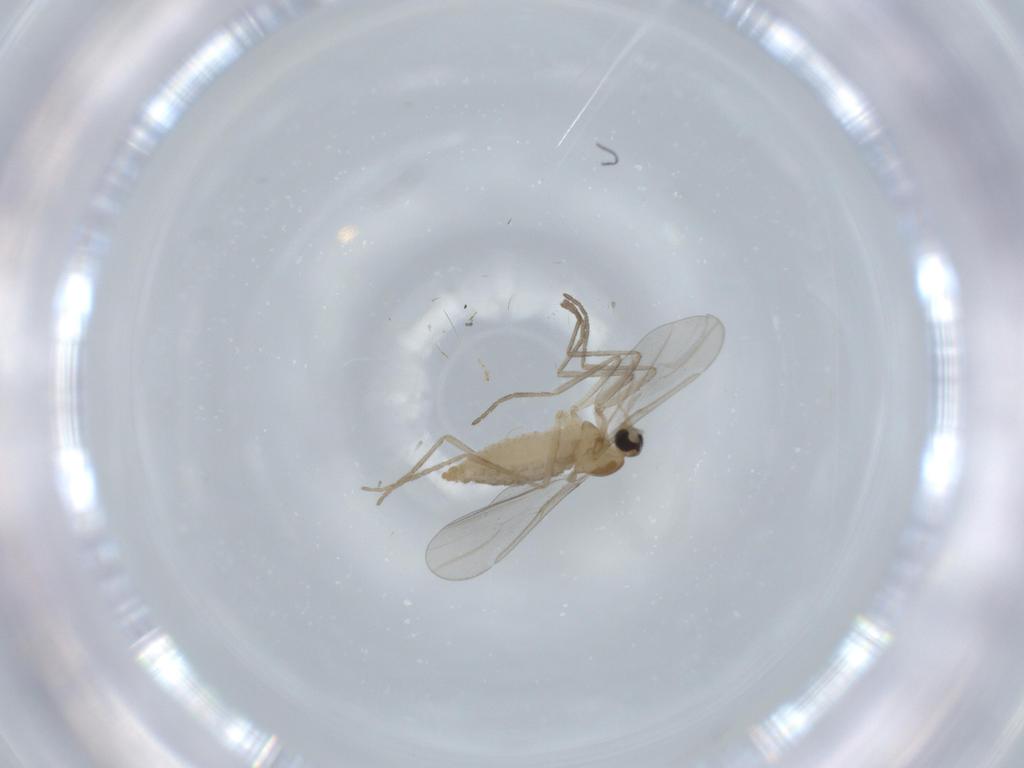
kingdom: Animalia
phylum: Arthropoda
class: Insecta
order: Diptera
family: Cecidomyiidae
